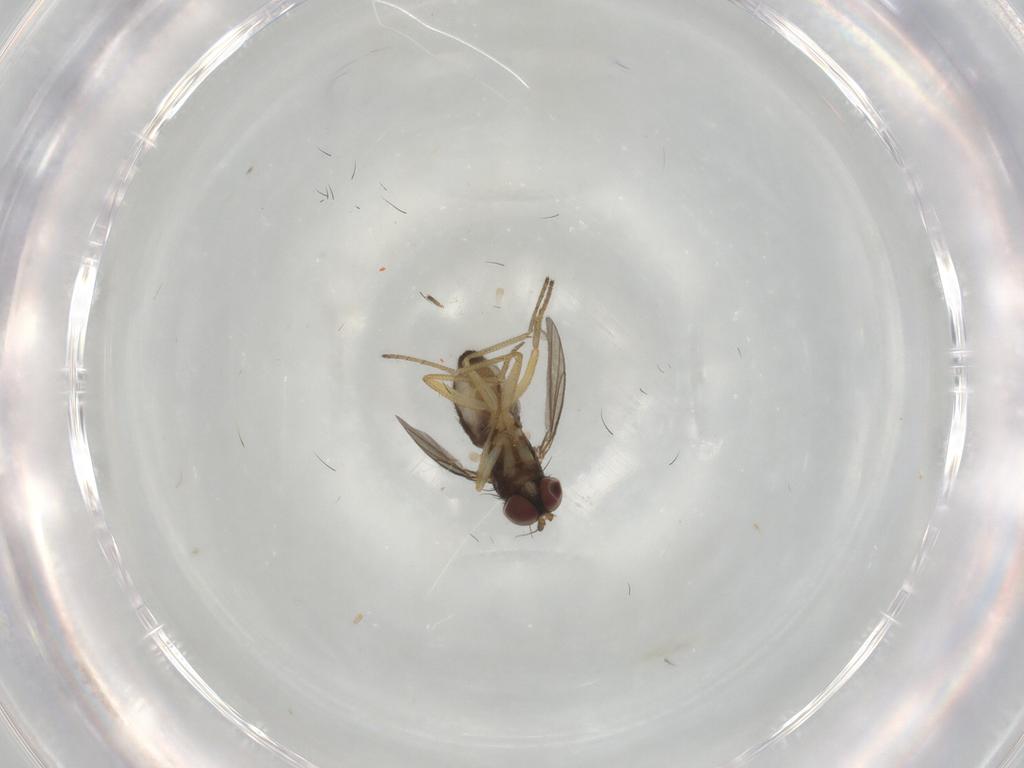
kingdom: Animalia
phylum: Arthropoda
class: Insecta
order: Diptera
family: Dolichopodidae
